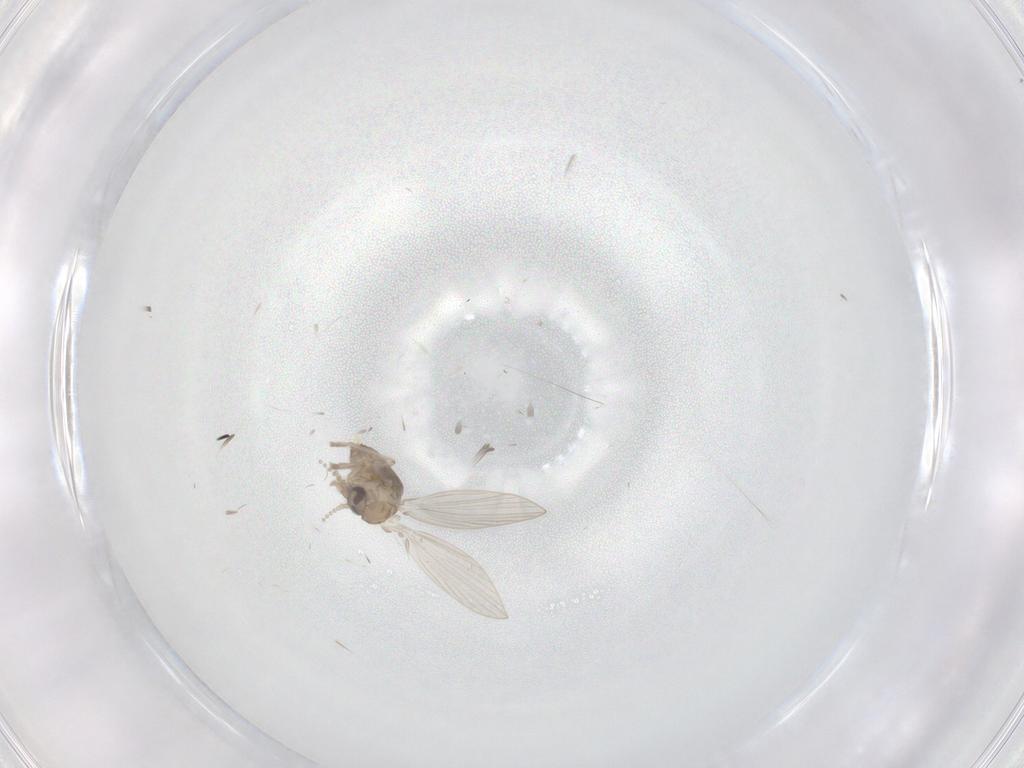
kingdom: Animalia
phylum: Arthropoda
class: Insecta
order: Diptera
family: Psychodidae
